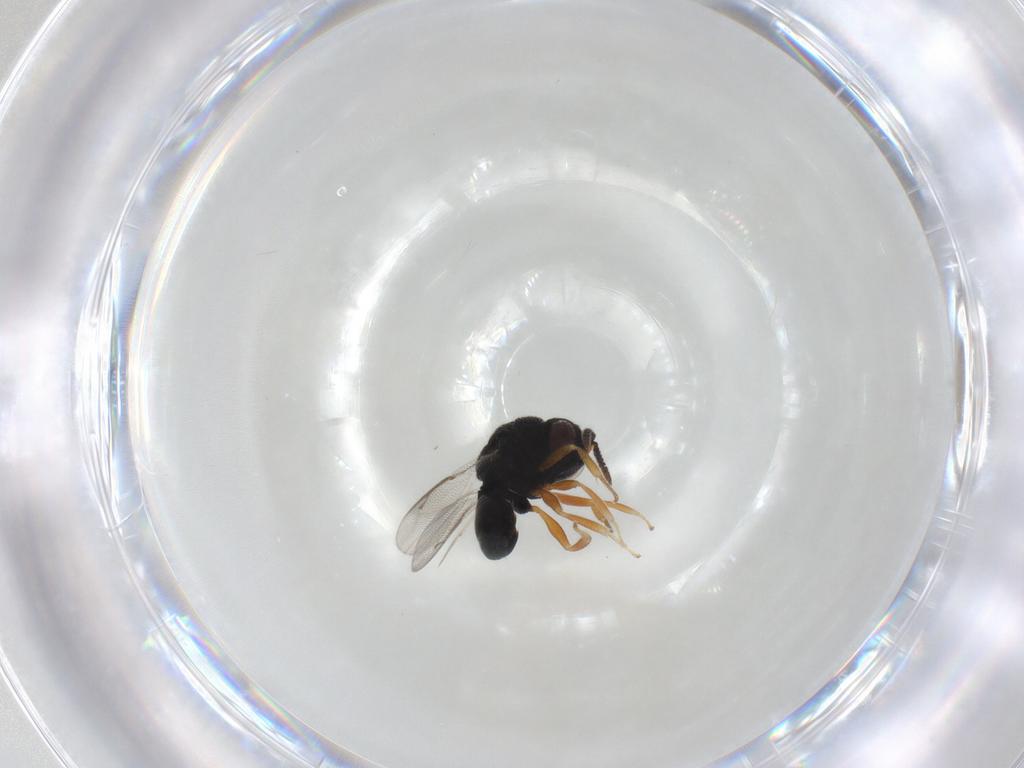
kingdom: Animalia
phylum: Arthropoda
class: Insecta
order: Hymenoptera
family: Eurytomidae
